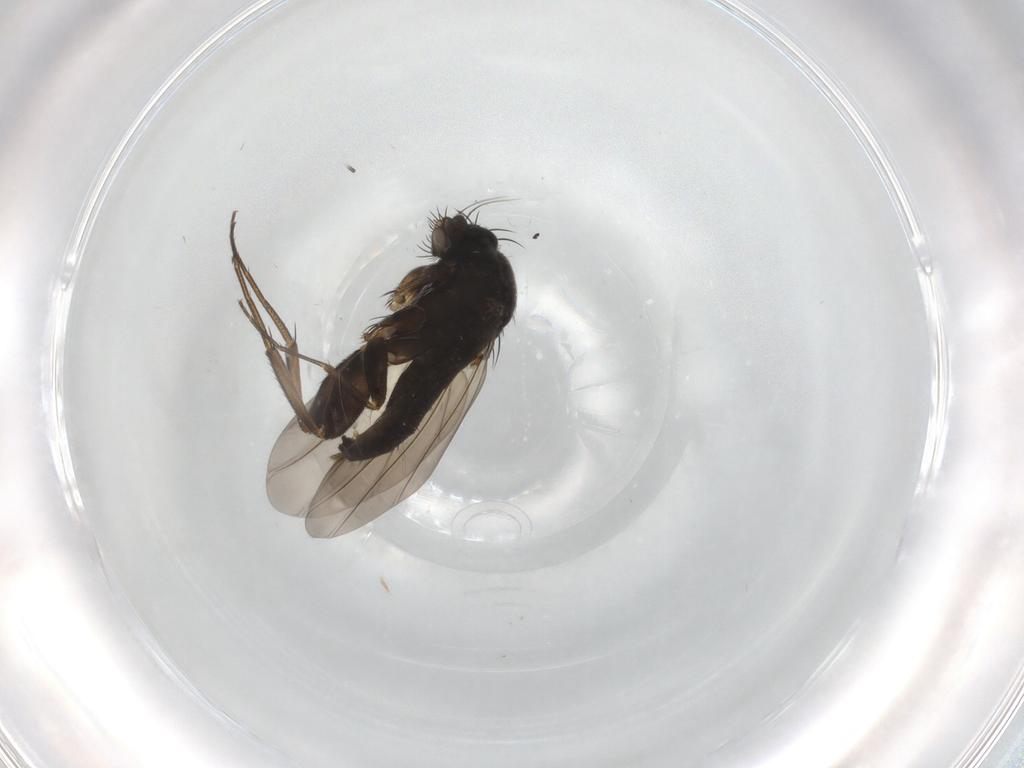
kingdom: Animalia
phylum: Arthropoda
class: Insecta
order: Diptera
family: Phoridae
